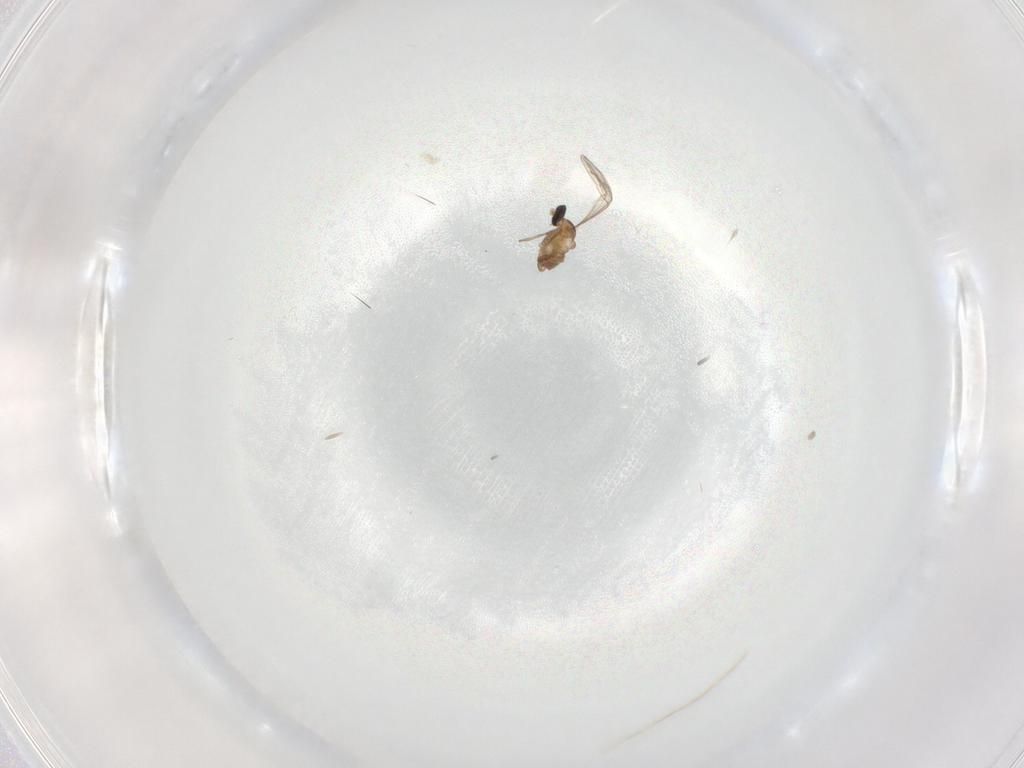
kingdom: Animalia
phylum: Arthropoda
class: Insecta
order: Diptera
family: Cecidomyiidae
